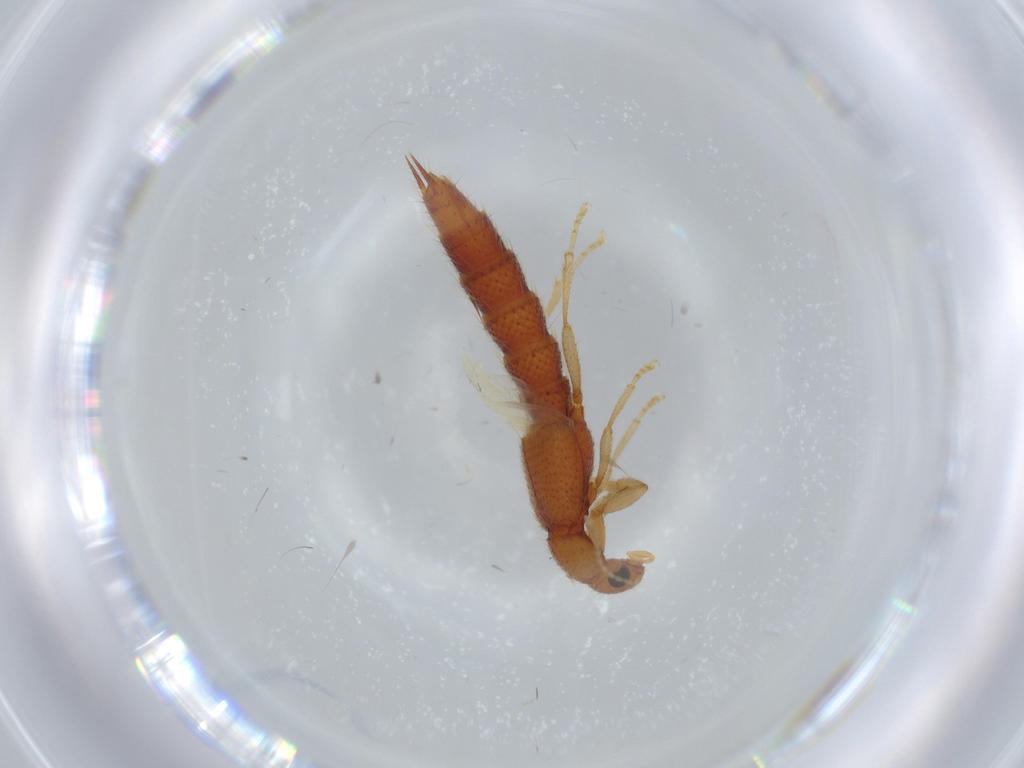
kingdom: Animalia
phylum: Arthropoda
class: Insecta
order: Coleoptera
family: Staphylinidae
